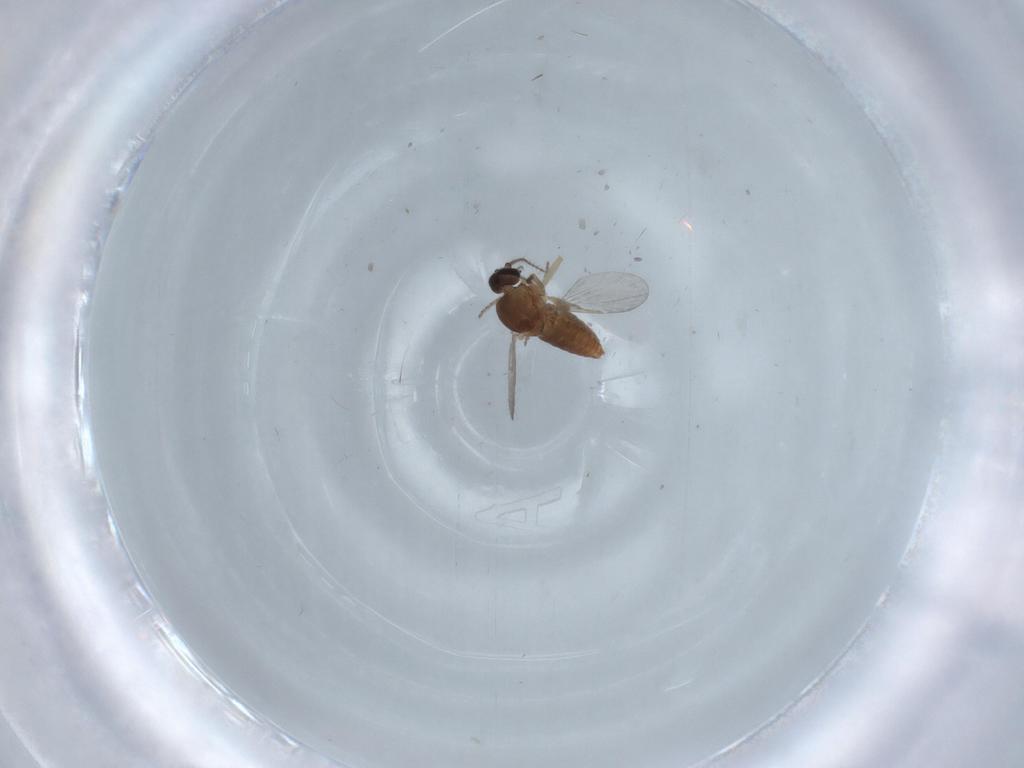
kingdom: Animalia
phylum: Arthropoda
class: Insecta
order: Diptera
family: Ceratopogonidae
